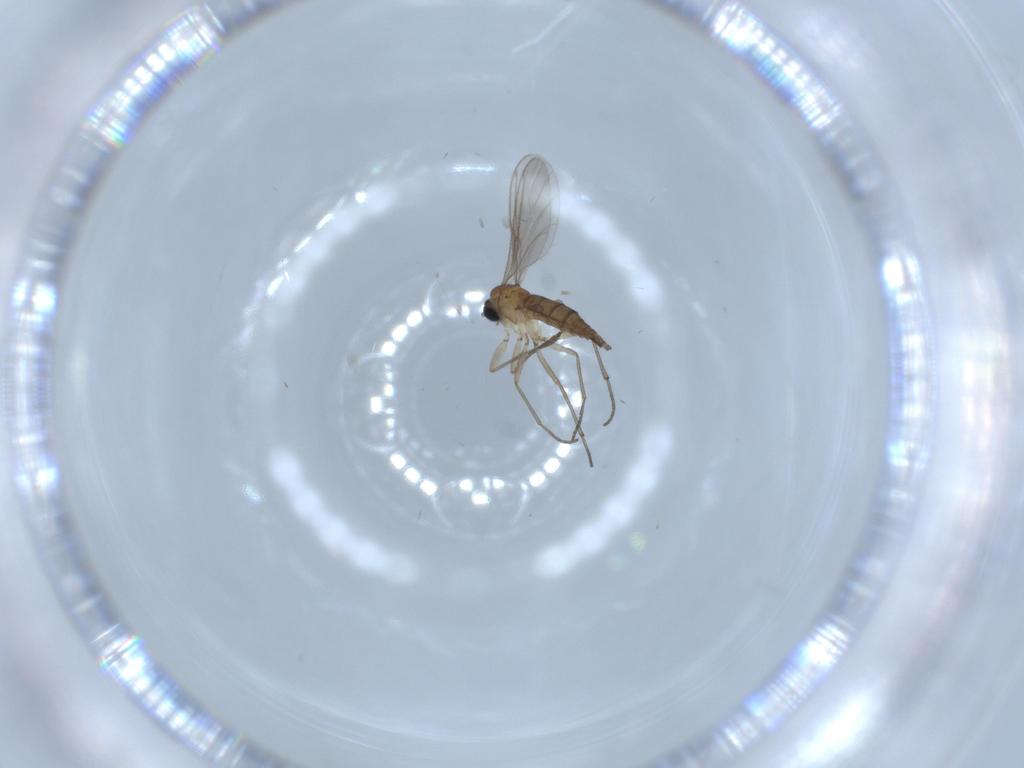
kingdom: Animalia
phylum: Arthropoda
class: Insecta
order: Diptera
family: Sciaridae
